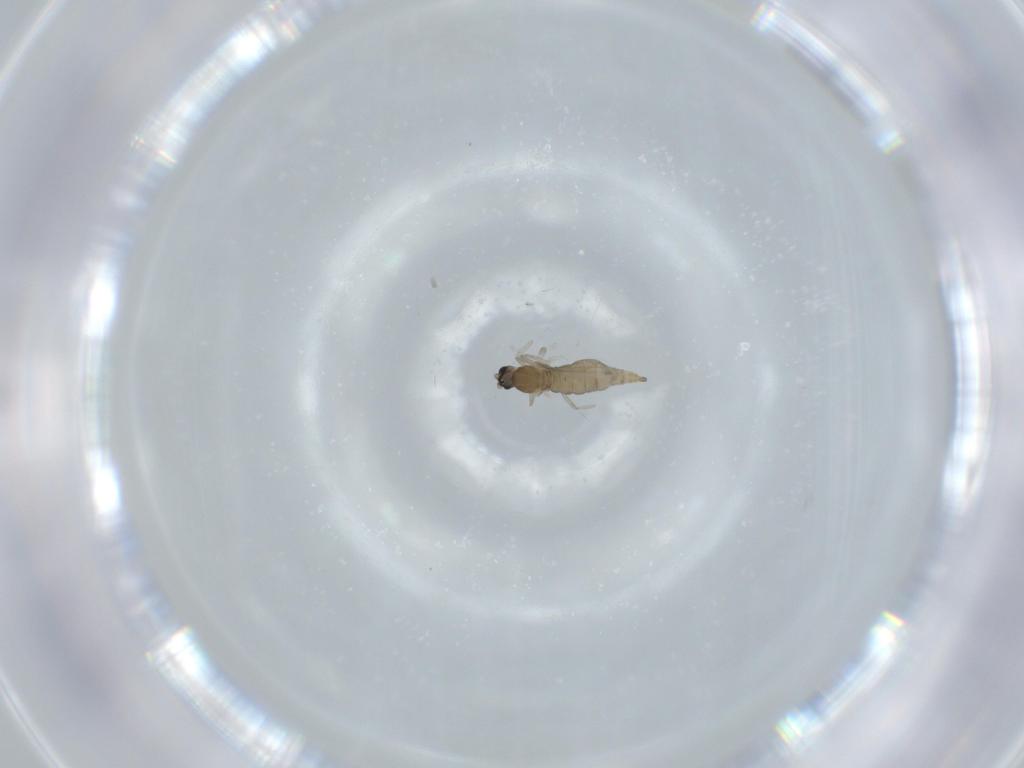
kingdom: Animalia
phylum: Arthropoda
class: Insecta
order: Diptera
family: Cecidomyiidae
